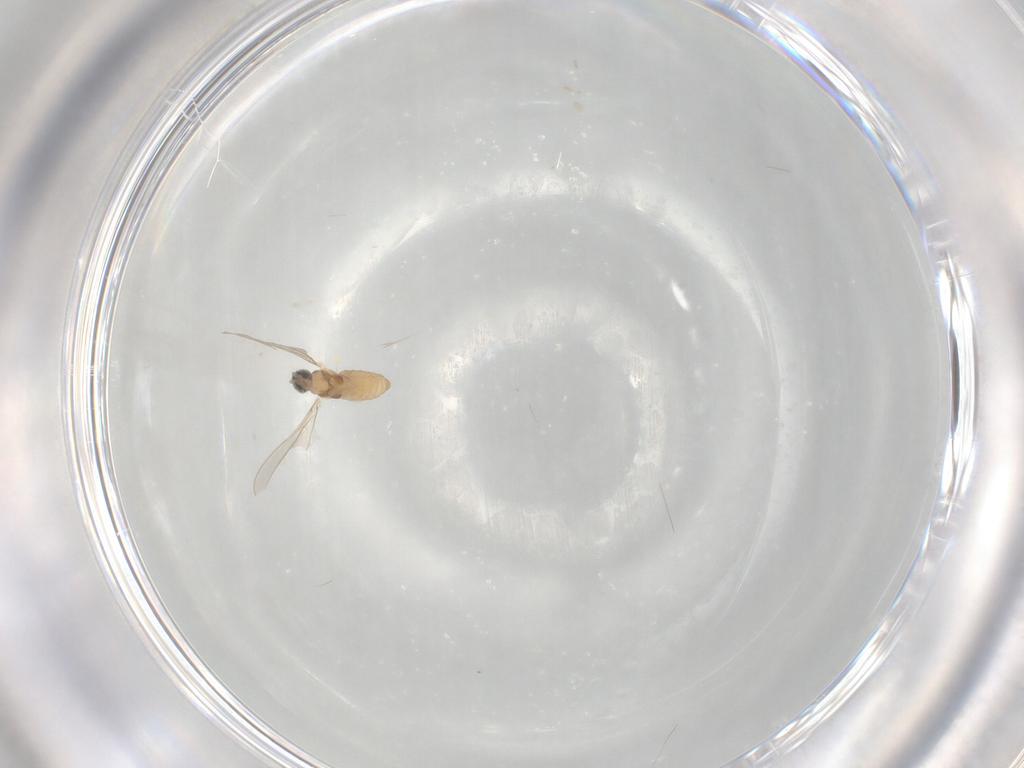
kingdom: Animalia
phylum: Arthropoda
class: Insecta
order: Diptera
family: Cecidomyiidae
